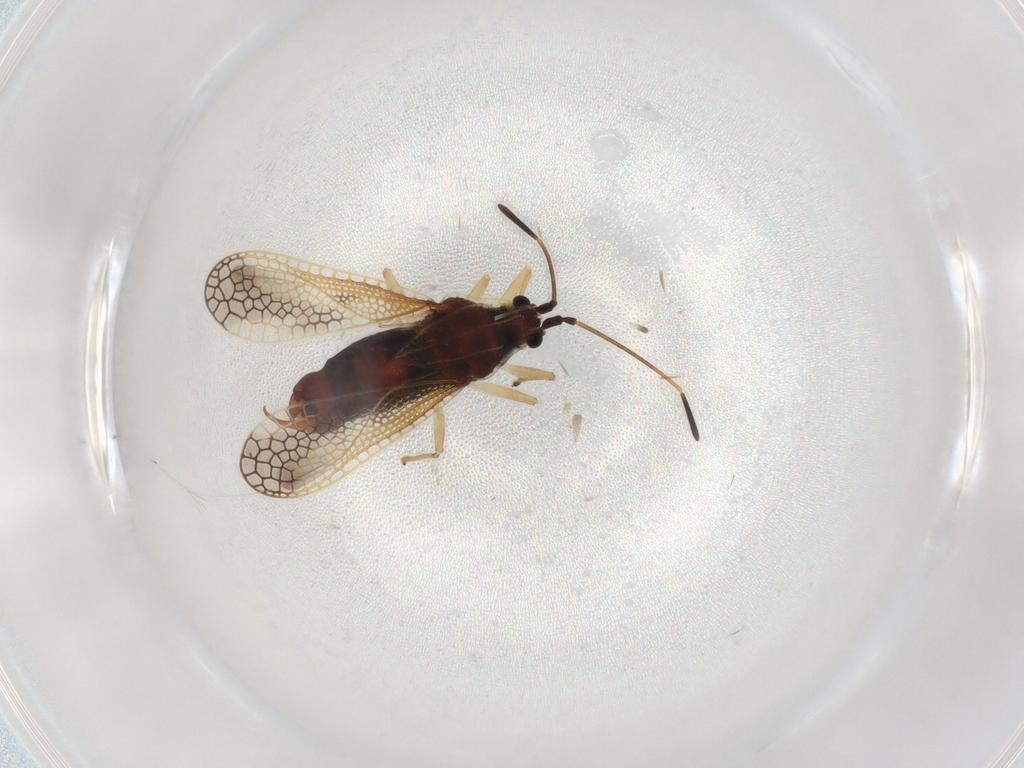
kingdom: Animalia
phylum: Arthropoda
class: Insecta
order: Hemiptera
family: Tingidae
